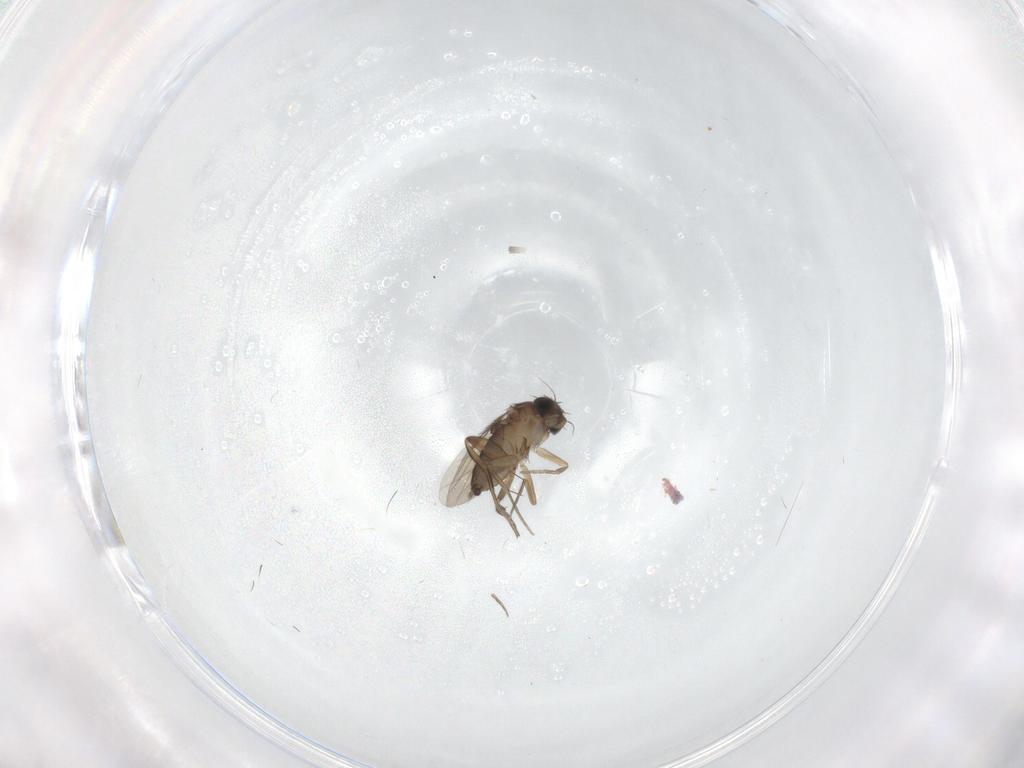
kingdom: Animalia
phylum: Arthropoda
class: Insecta
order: Diptera
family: Phoridae
